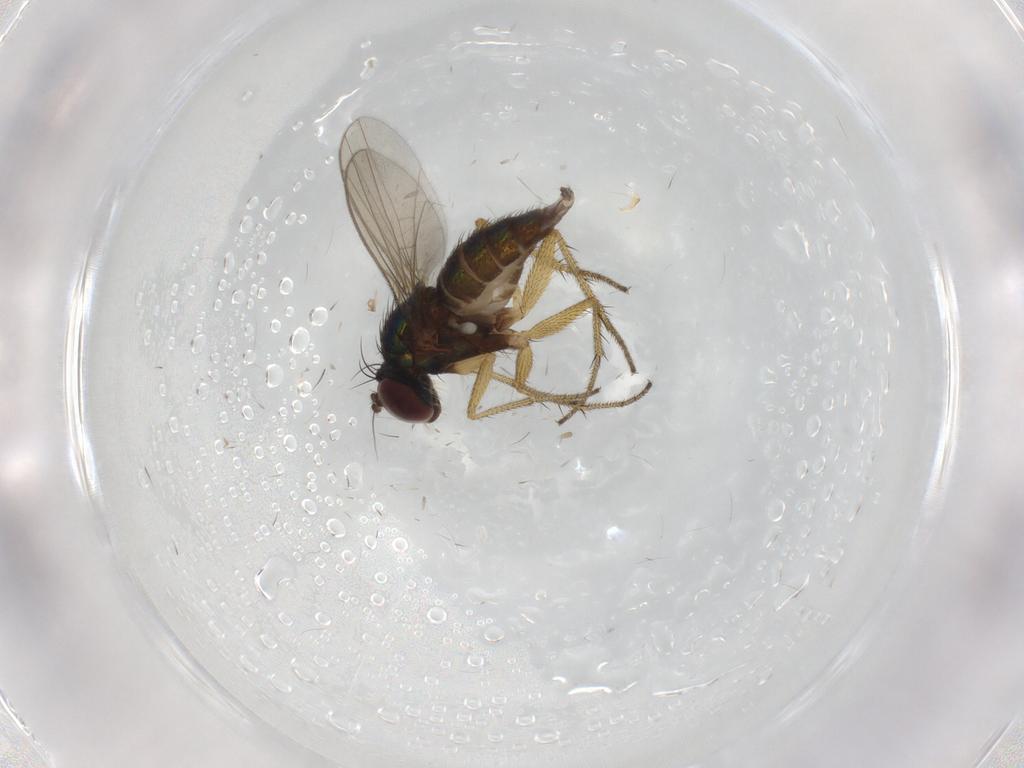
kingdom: Animalia
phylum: Arthropoda
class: Insecta
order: Diptera
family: Dolichopodidae
